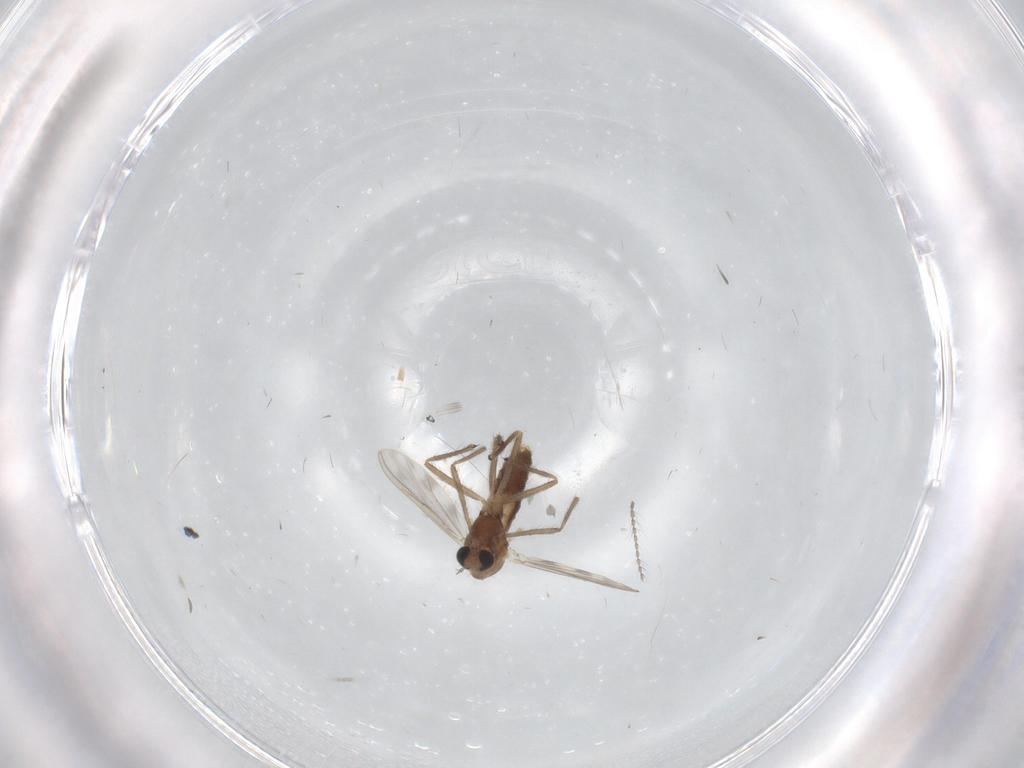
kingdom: Animalia
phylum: Arthropoda
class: Insecta
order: Diptera
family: Chironomidae
